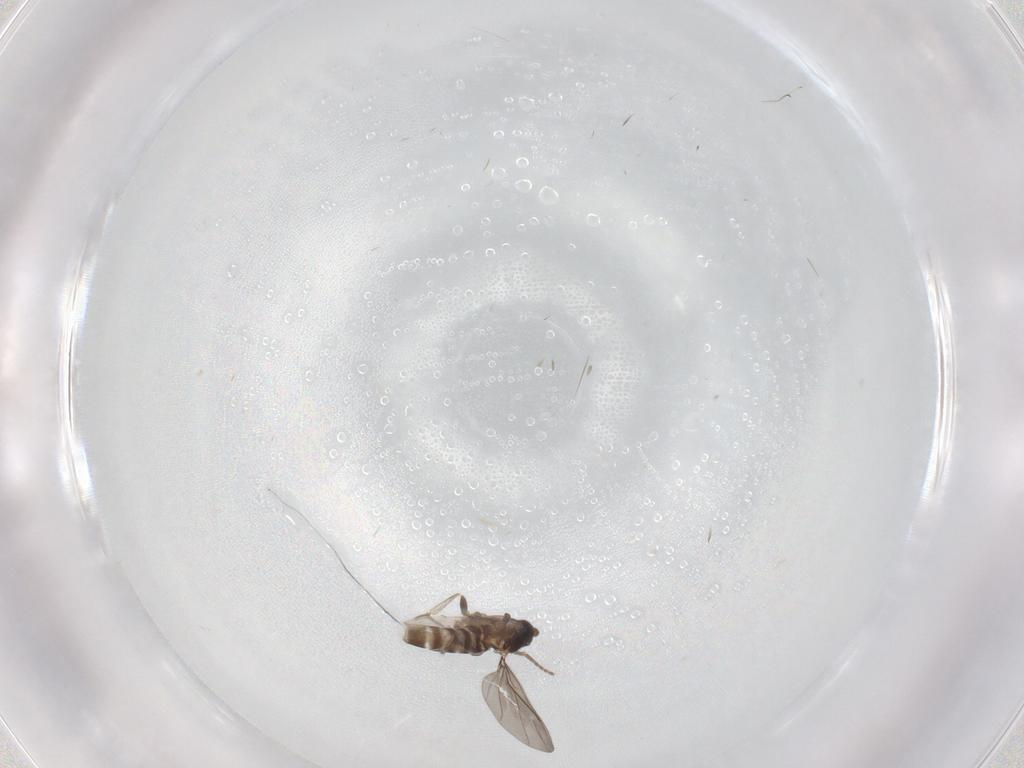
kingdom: Animalia
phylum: Arthropoda
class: Insecta
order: Diptera
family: Phoridae
